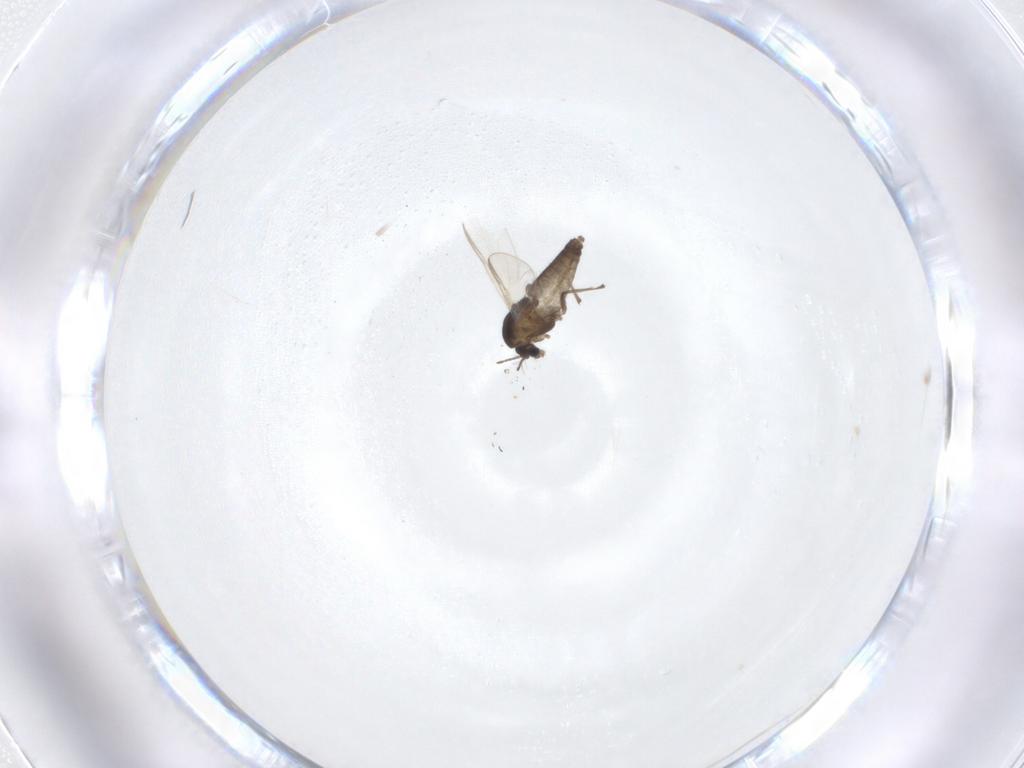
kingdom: Animalia
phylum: Arthropoda
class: Insecta
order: Diptera
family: Chironomidae
